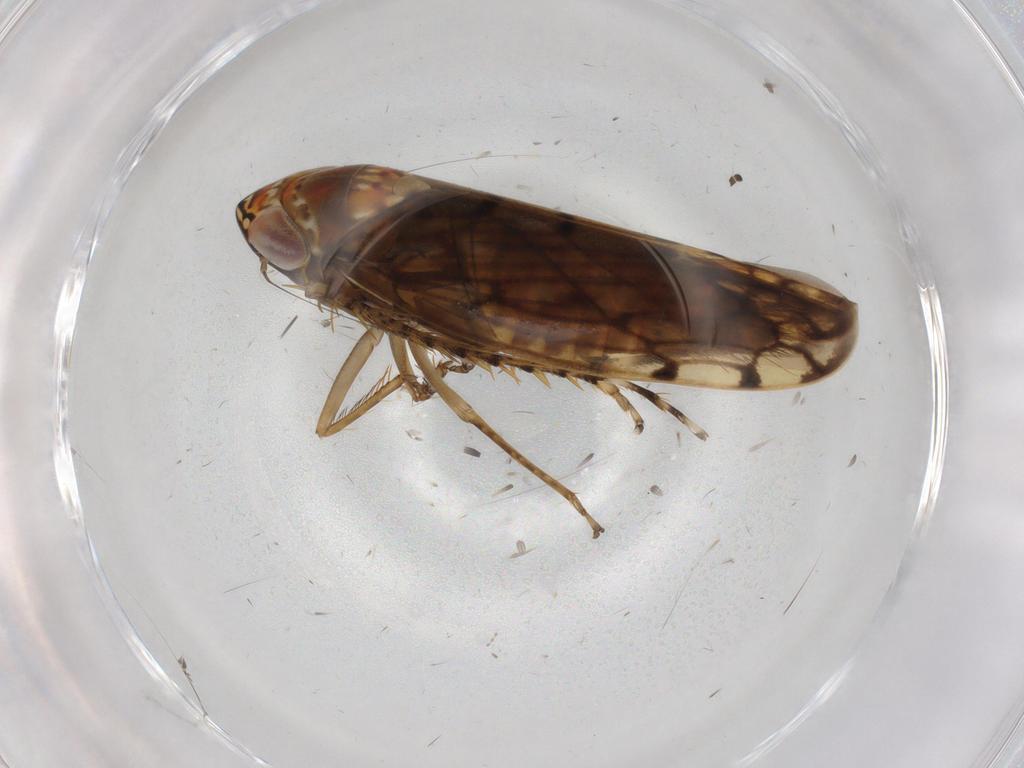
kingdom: Animalia
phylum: Arthropoda
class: Insecta
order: Hemiptera
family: Cicadellidae
